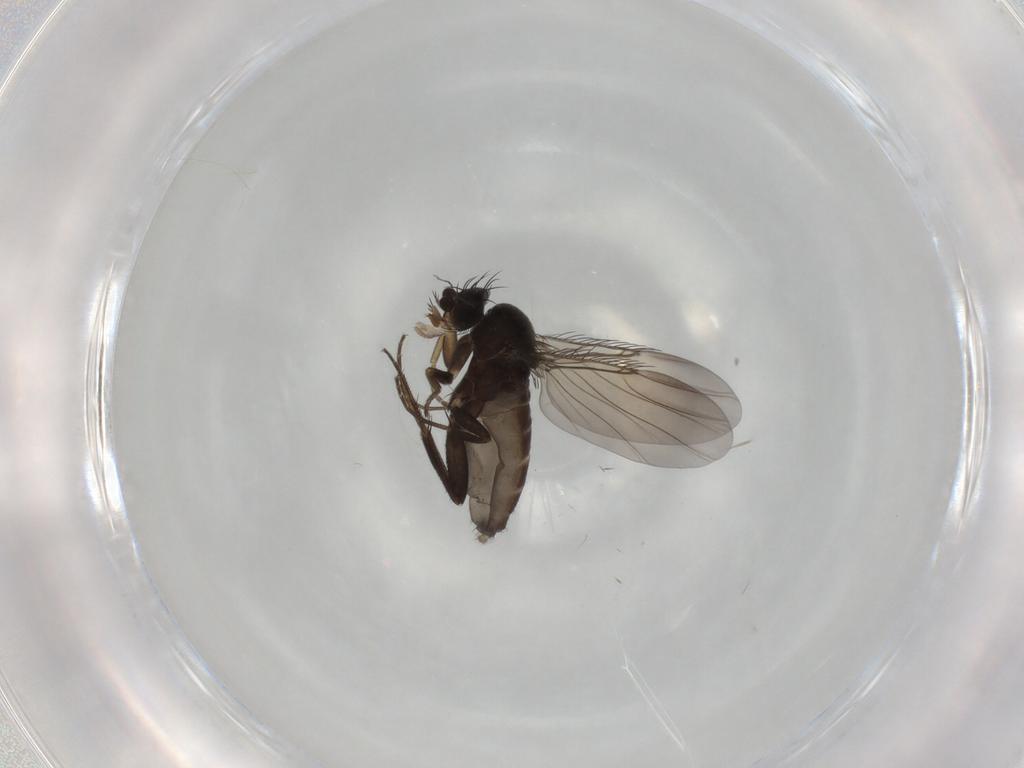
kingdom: Animalia
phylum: Arthropoda
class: Insecta
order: Diptera
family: Phoridae
